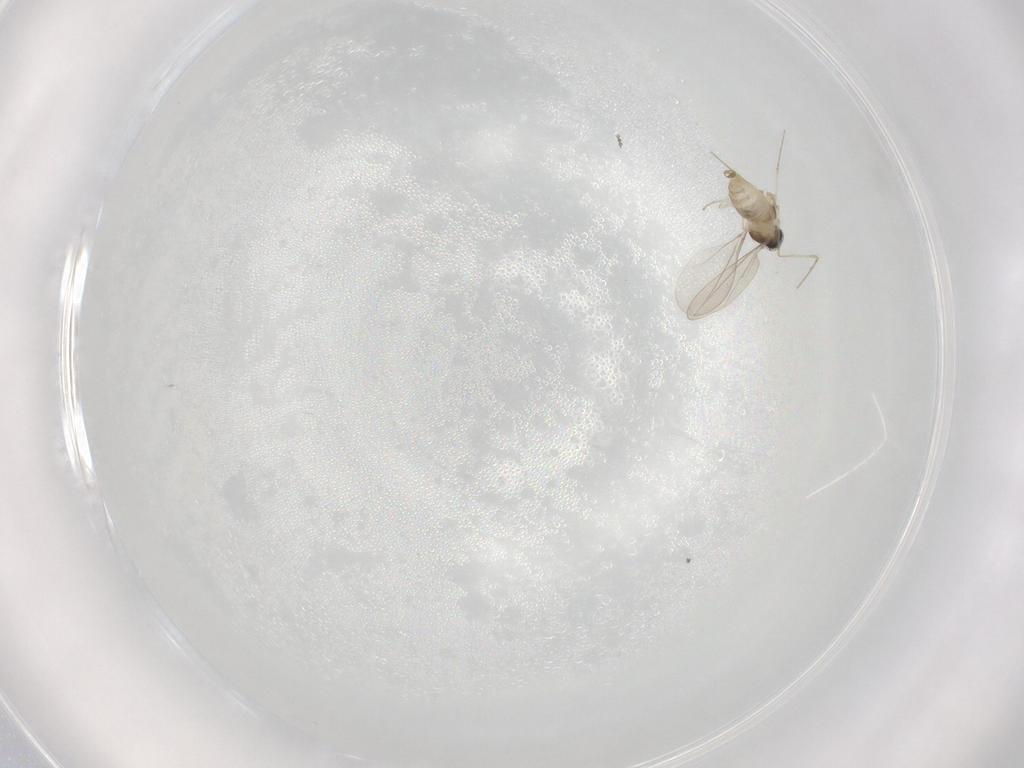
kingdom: Animalia
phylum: Arthropoda
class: Insecta
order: Diptera
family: Cecidomyiidae
